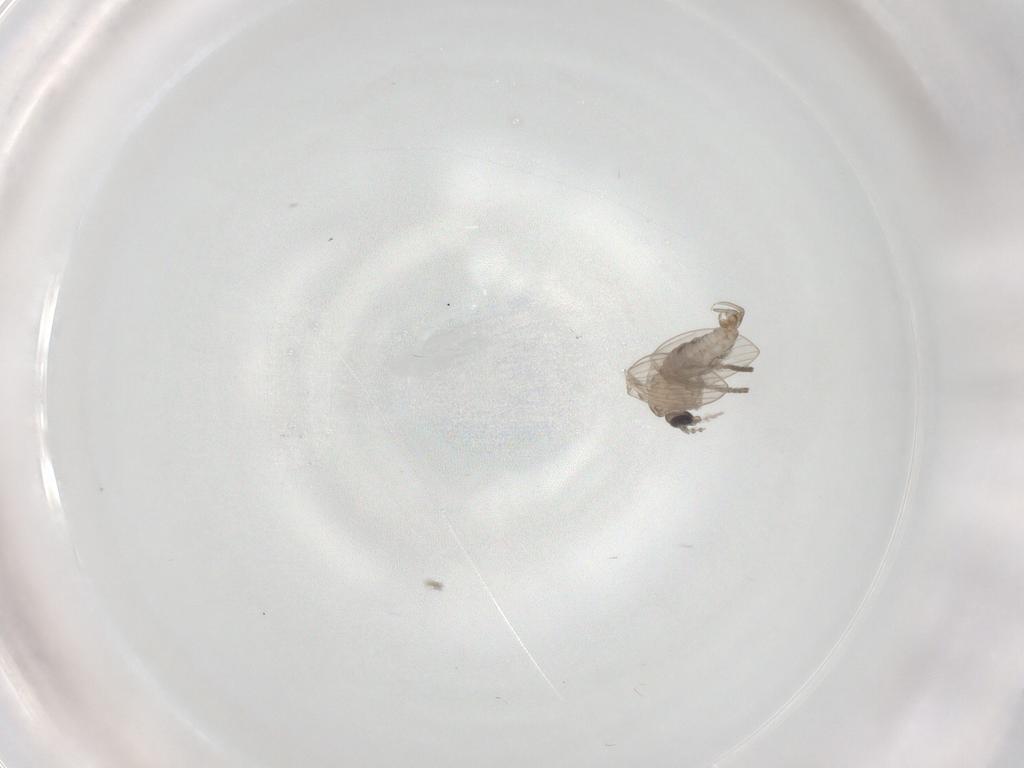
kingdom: Animalia
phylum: Arthropoda
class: Insecta
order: Diptera
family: Psychodidae
